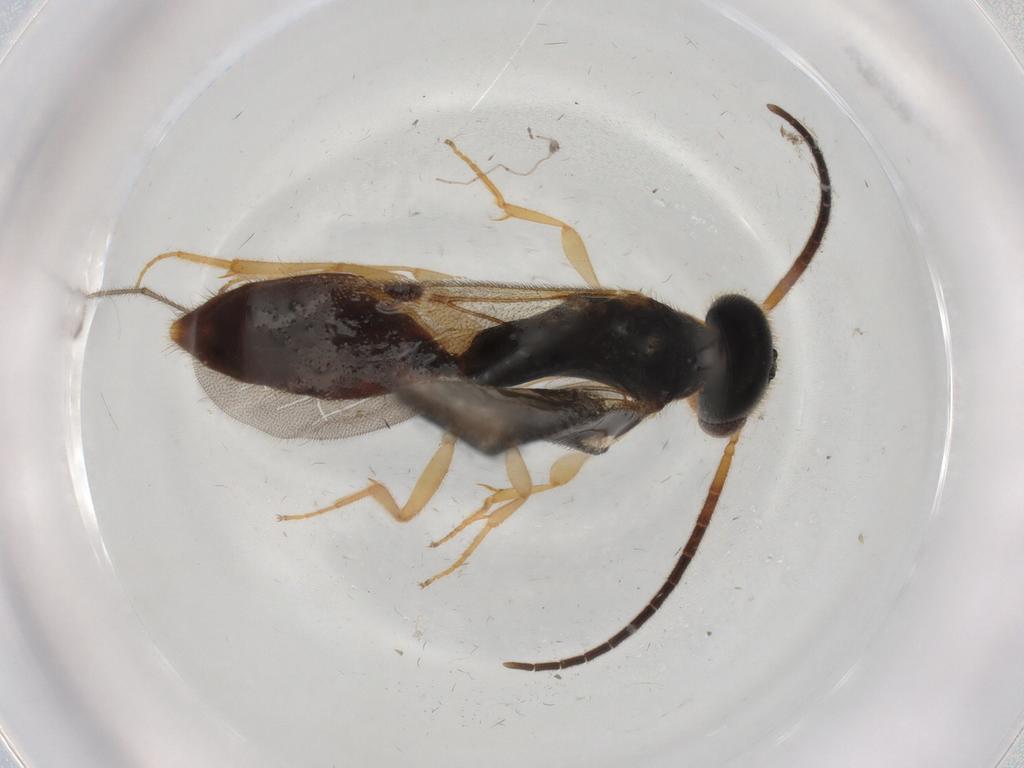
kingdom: Animalia
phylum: Arthropoda
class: Insecta
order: Hymenoptera
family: Bethylidae
